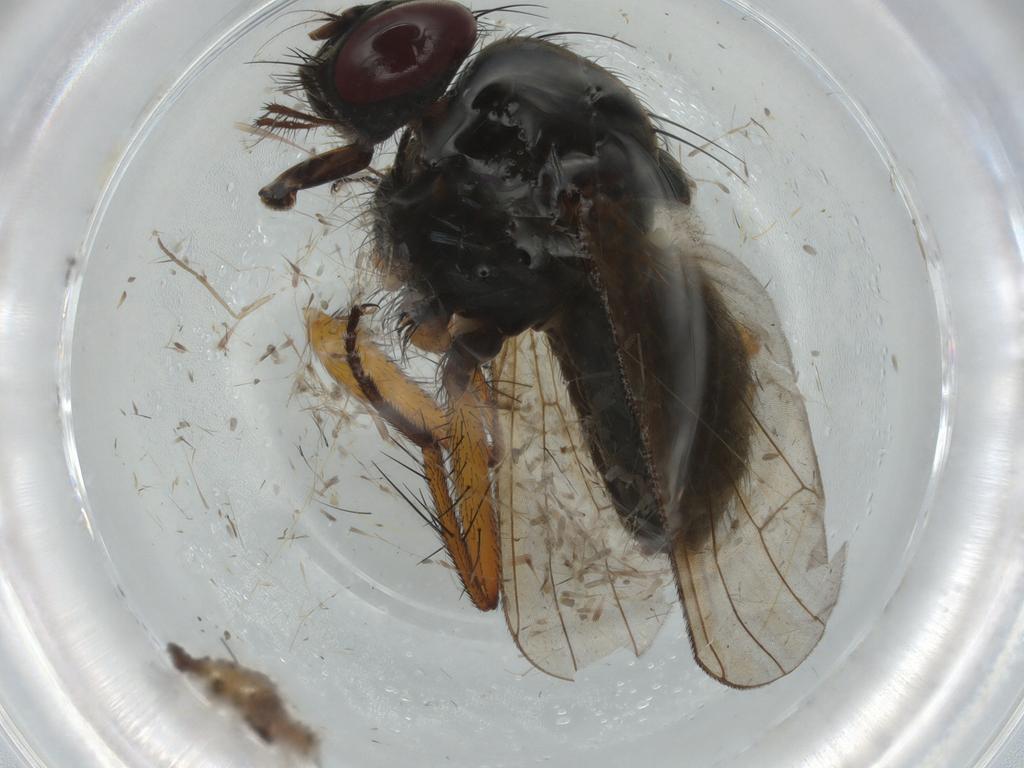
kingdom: Animalia
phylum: Arthropoda
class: Insecta
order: Diptera
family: Muscidae
